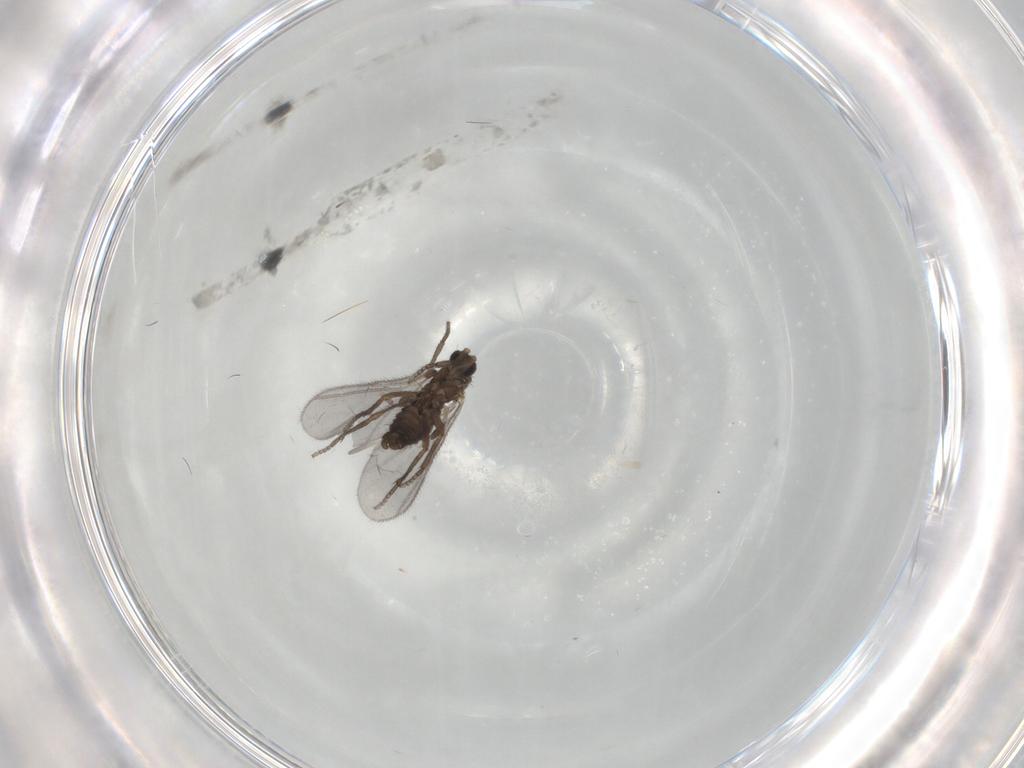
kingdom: Animalia
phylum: Arthropoda
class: Insecta
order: Diptera
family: Sciaridae
